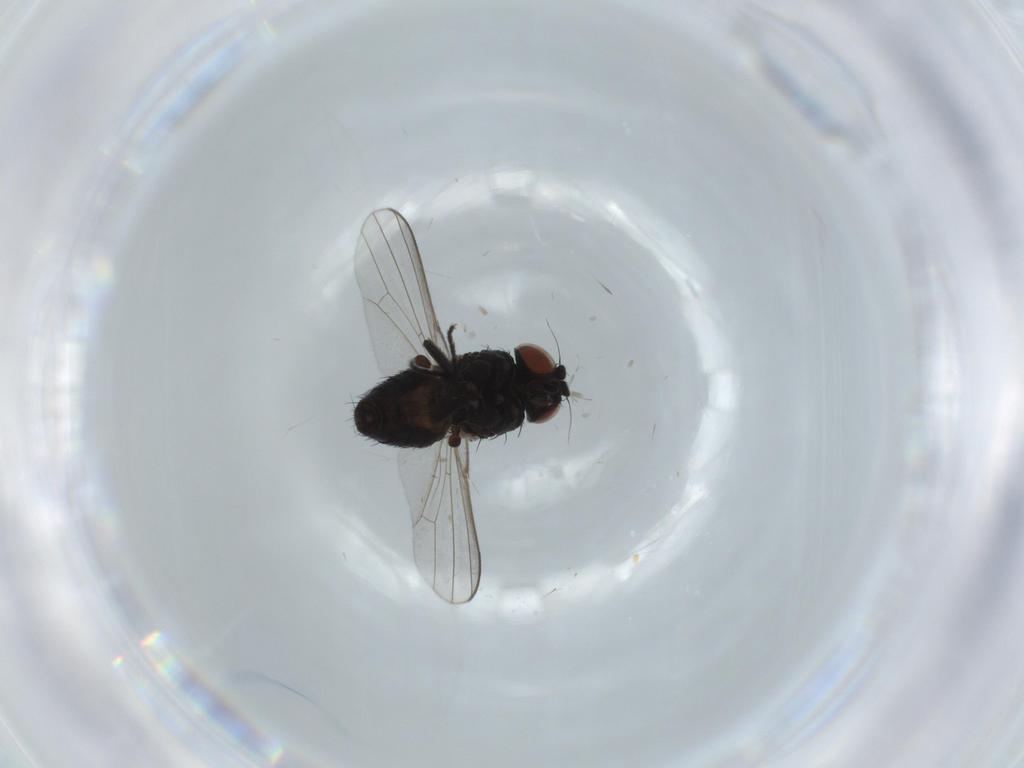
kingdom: Animalia
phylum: Arthropoda
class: Insecta
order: Diptera
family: Milichiidae
